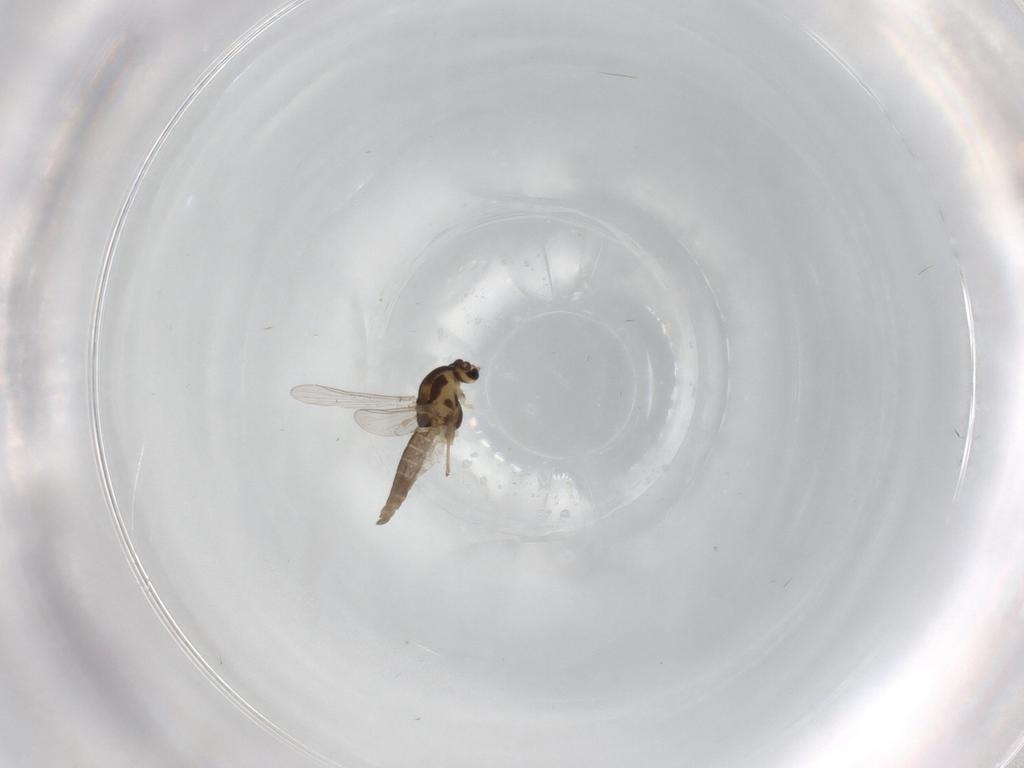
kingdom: Animalia
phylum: Arthropoda
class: Insecta
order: Diptera
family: Chironomidae
